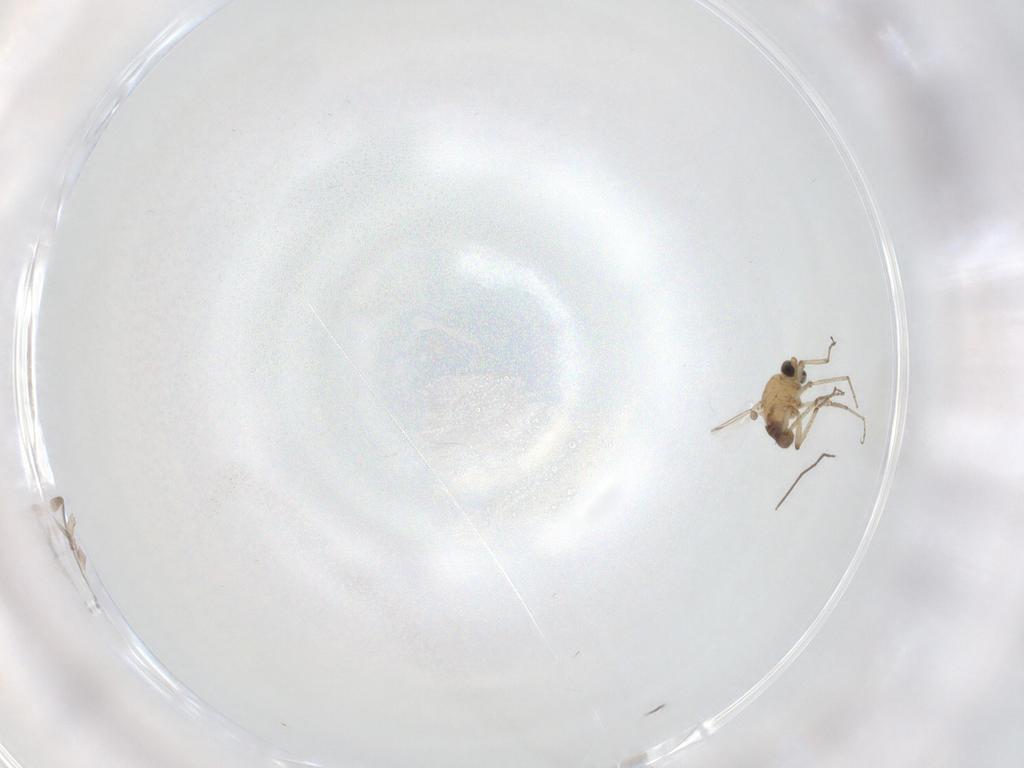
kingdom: Animalia
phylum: Arthropoda
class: Insecta
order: Diptera
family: Ceratopogonidae
